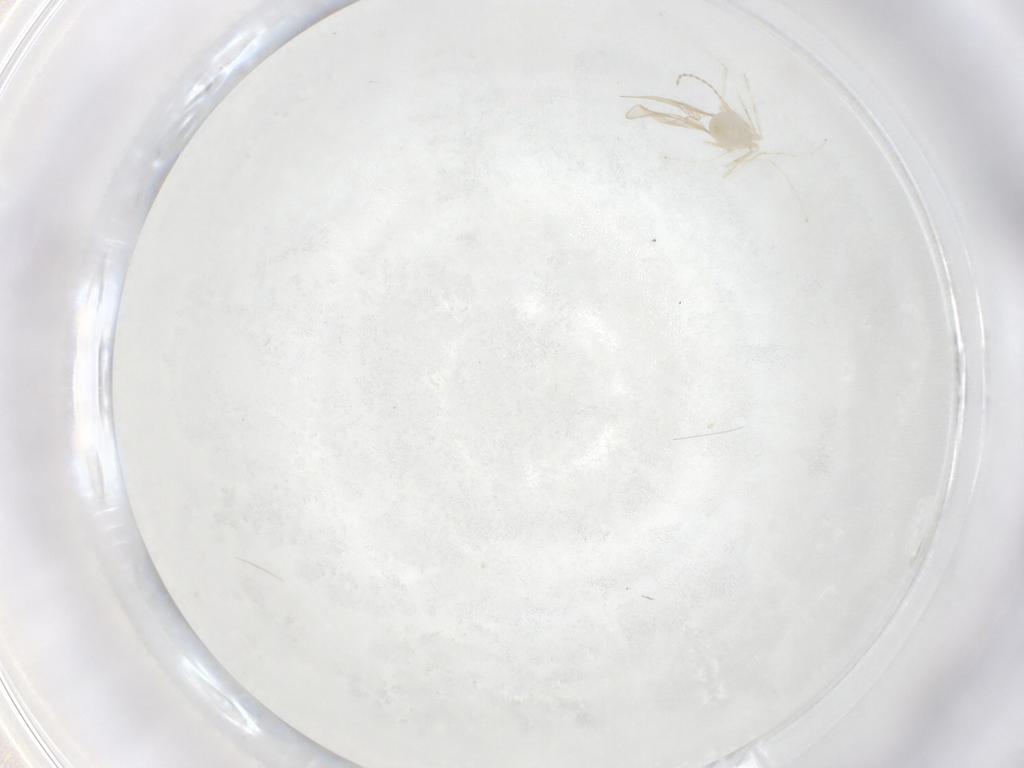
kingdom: Animalia
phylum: Arthropoda
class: Insecta
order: Diptera
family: Cecidomyiidae
